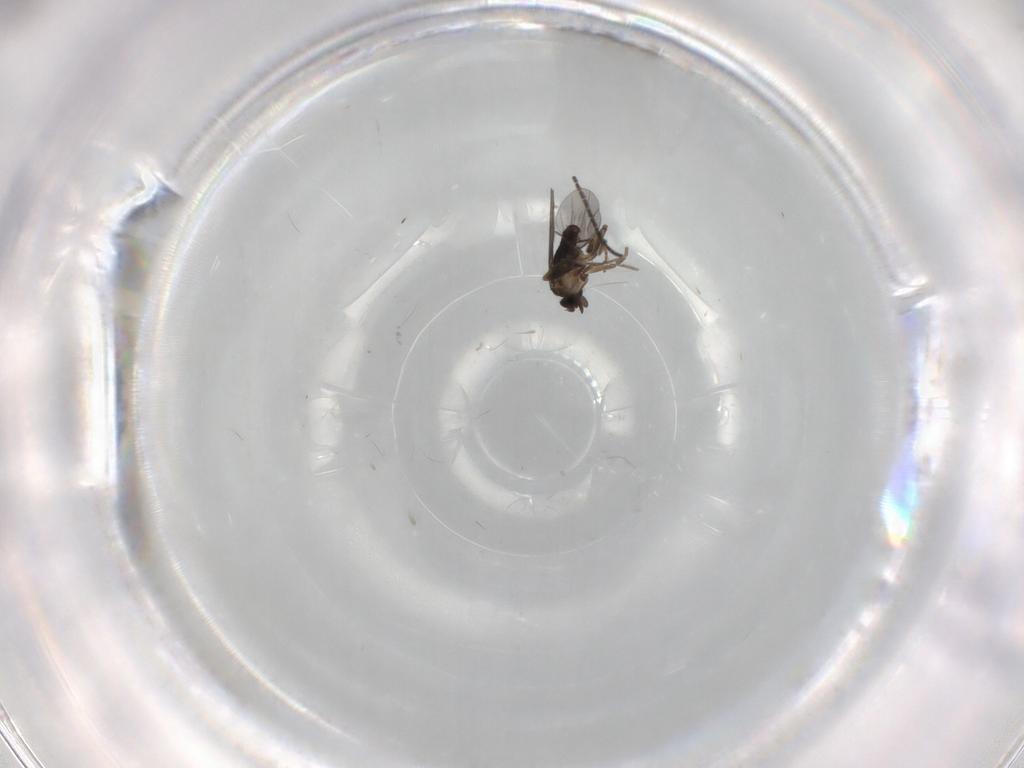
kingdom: Animalia
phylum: Arthropoda
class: Insecta
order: Diptera
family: Sciaridae
